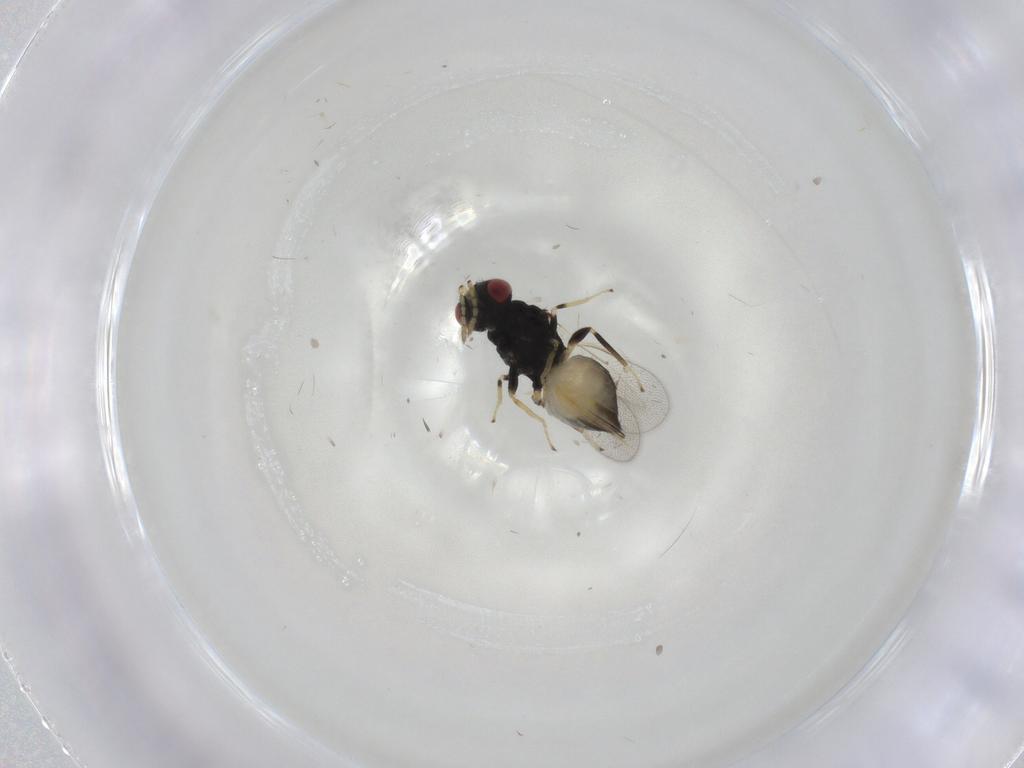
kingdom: Animalia
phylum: Arthropoda
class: Insecta
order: Hymenoptera
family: Eulophidae
